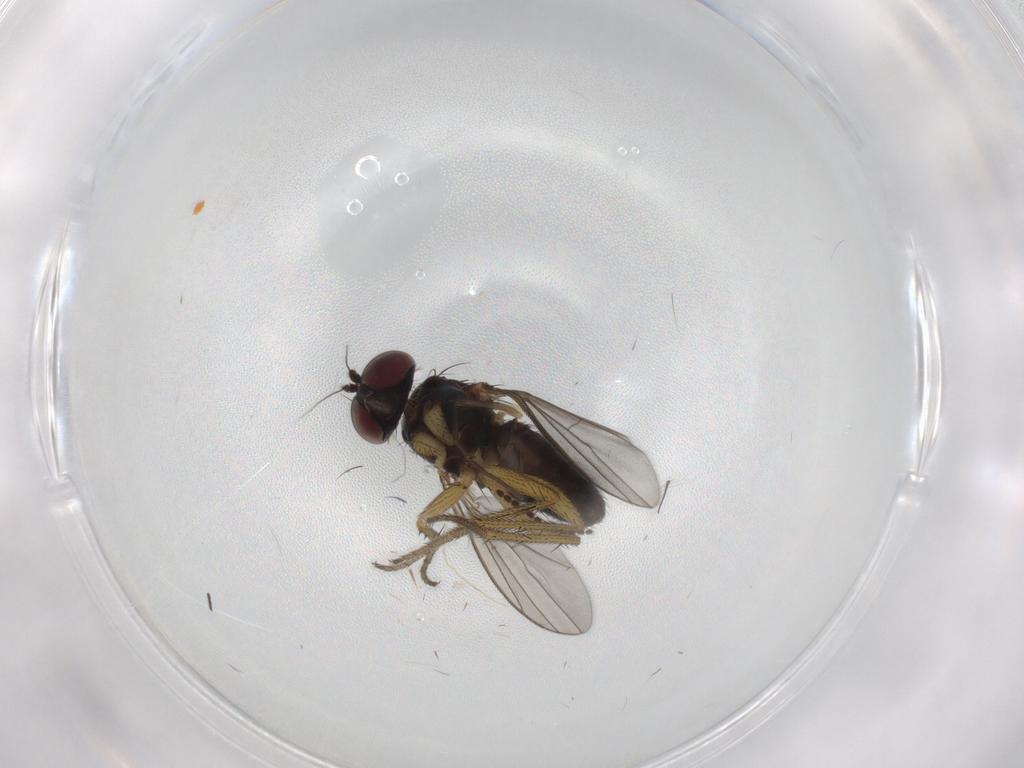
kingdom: Animalia
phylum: Arthropoda
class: Insecta
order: Diptera
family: Chironomidae
